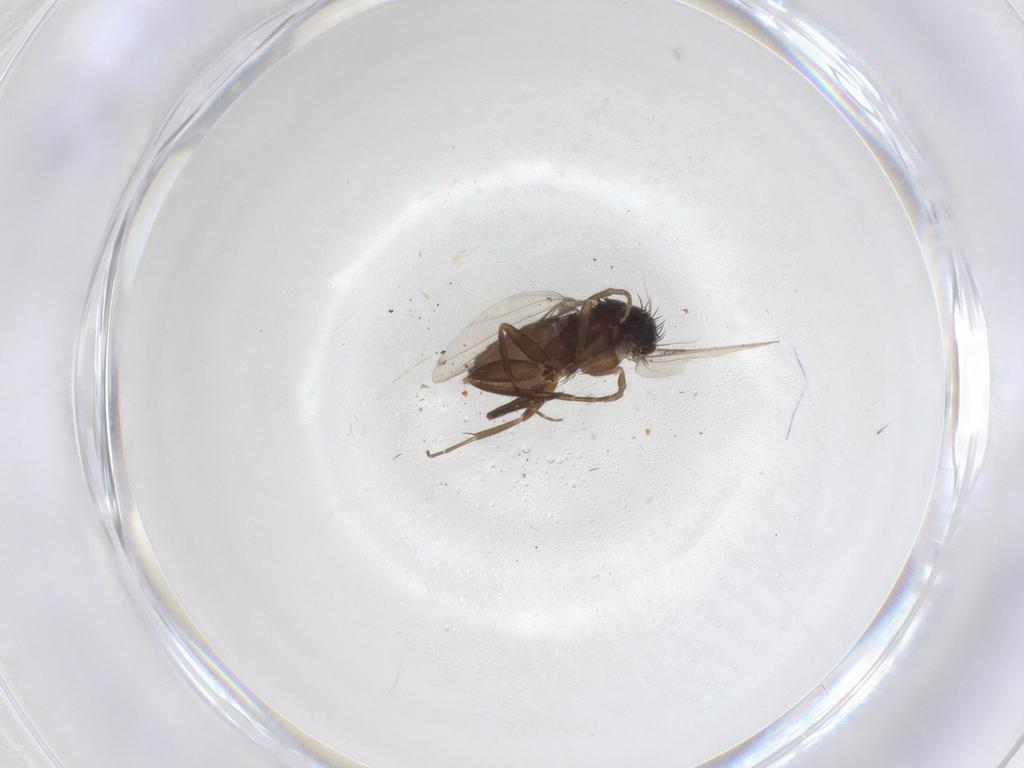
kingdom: Animalia
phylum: Arthropoda
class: Insecta
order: Diptera
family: Phoridae
